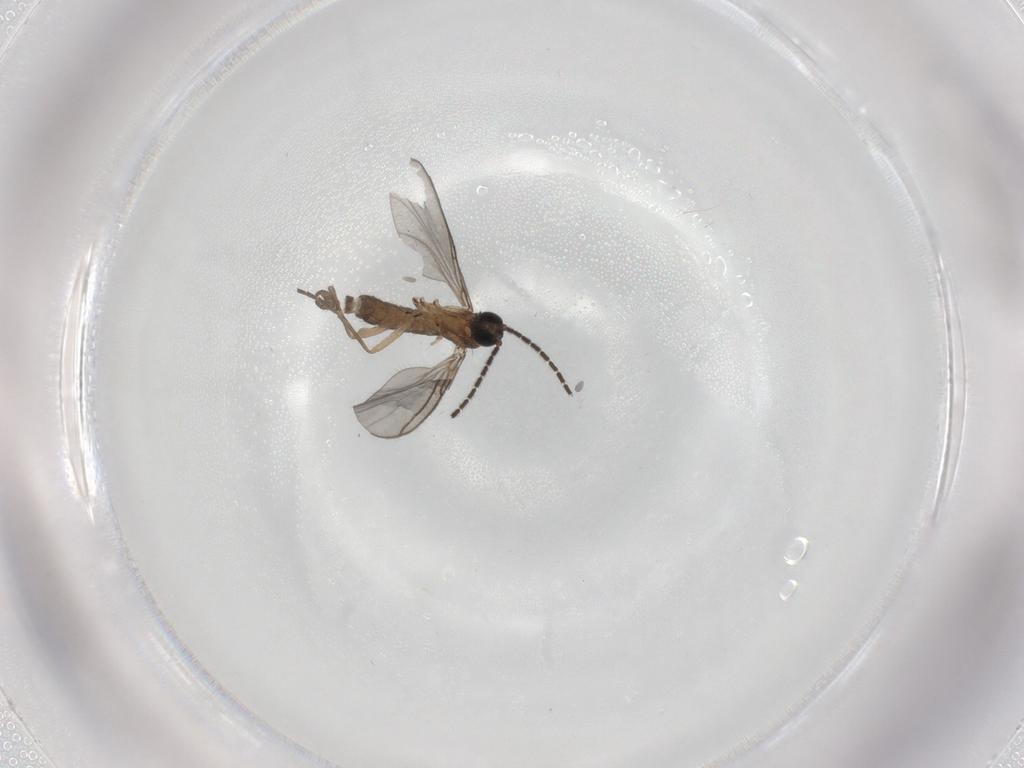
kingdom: Animalia
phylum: Arthropoda
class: Insecta
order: Diptera
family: Sciaridae
